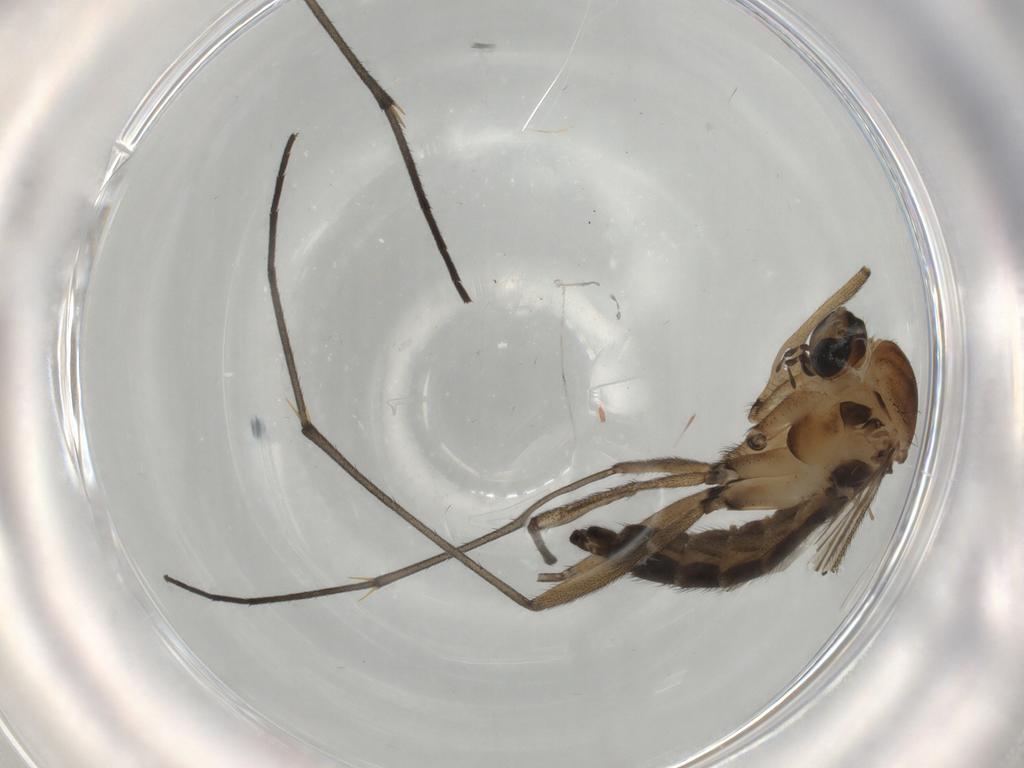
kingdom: Animalia
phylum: Arthropoda
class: Insecta
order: Diptera
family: Sciaridae
